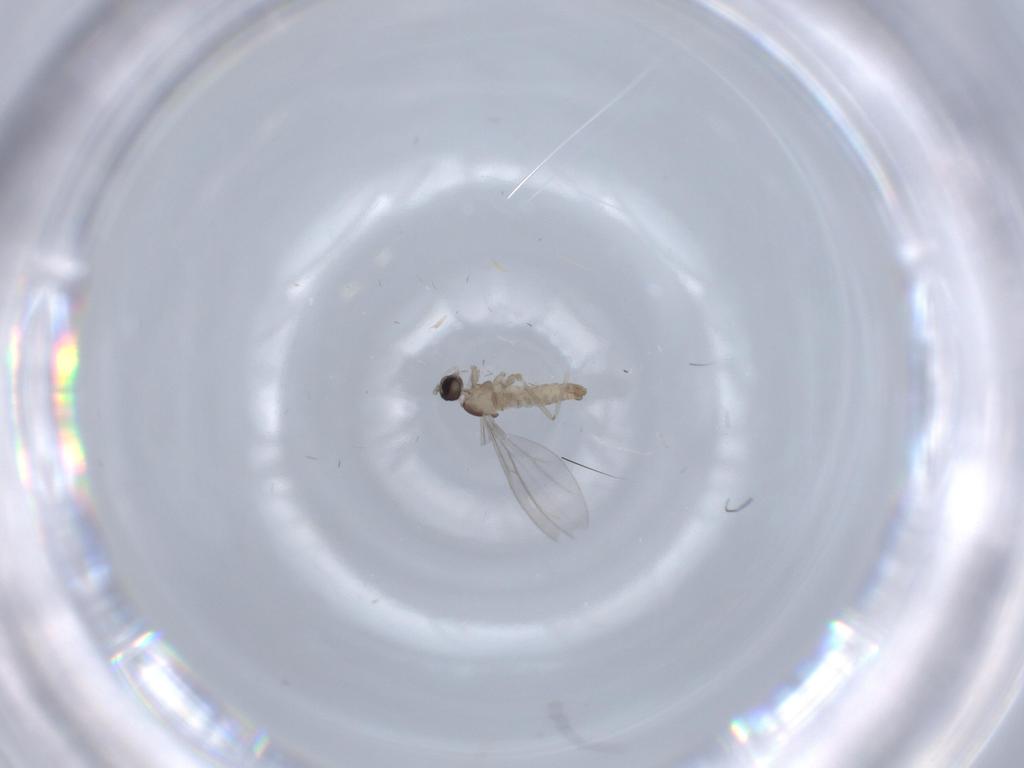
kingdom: Animalia
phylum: Arthropoda
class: Insecta
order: Diptera
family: Cecidomyiidae
